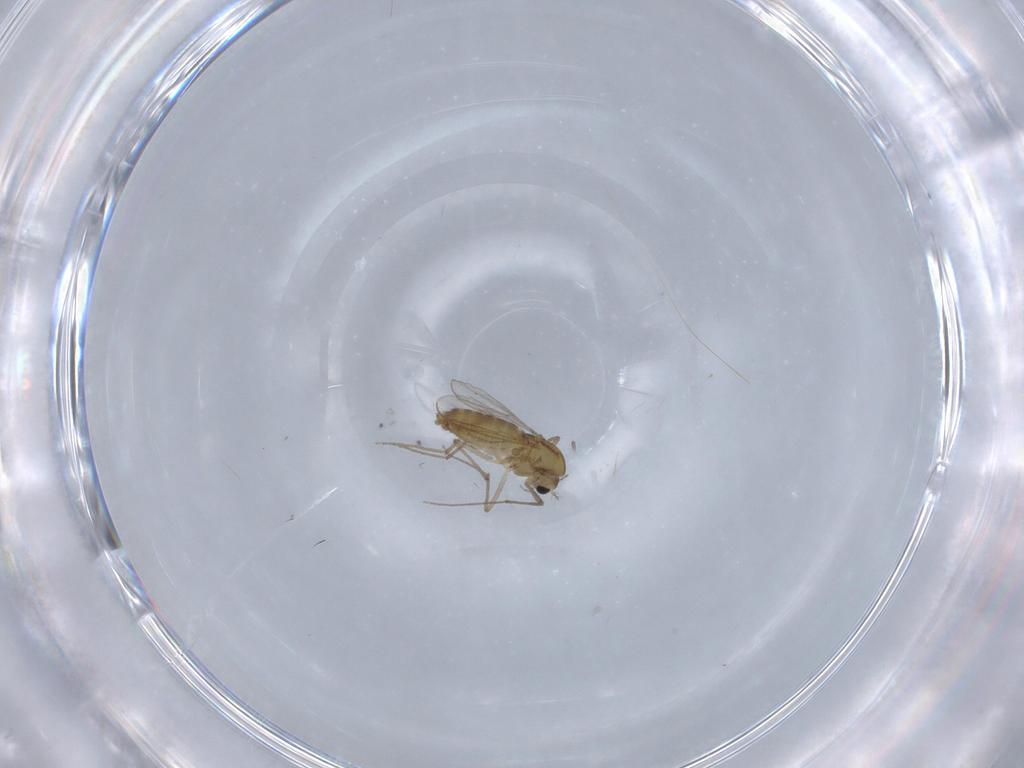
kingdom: Animalia
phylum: Arthropoda
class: Insecta
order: Diptera
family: Chironomidae
